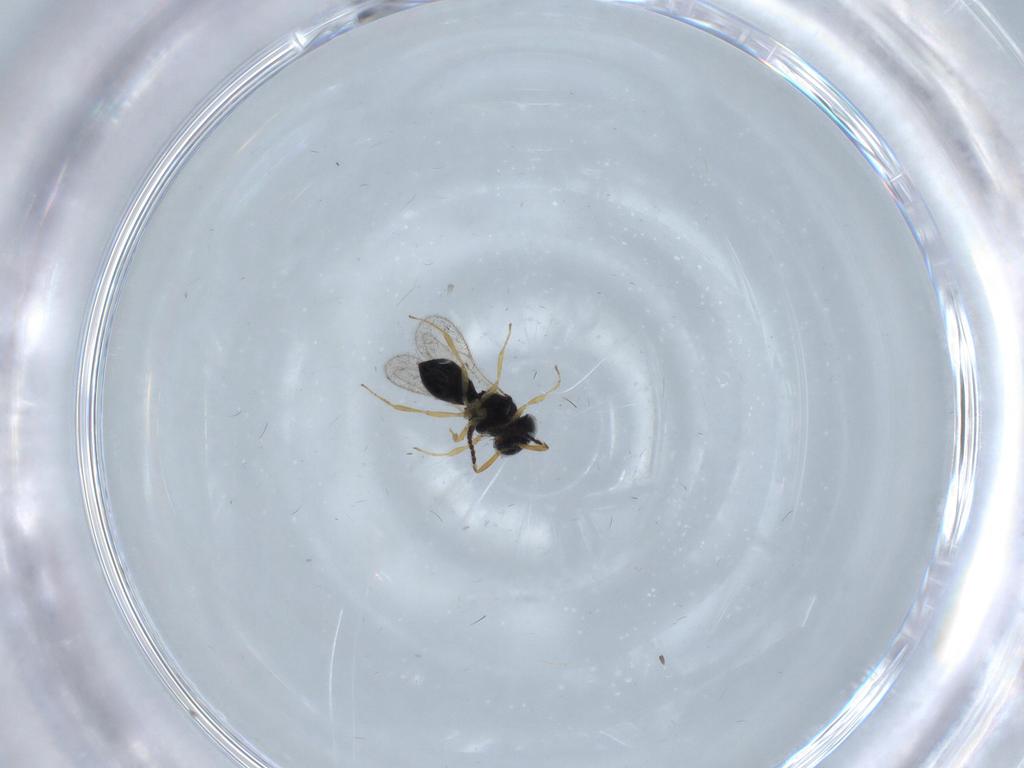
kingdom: Animalia
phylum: Arthropoda
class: Insecta
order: Hymenoptera
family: Scelionidae
